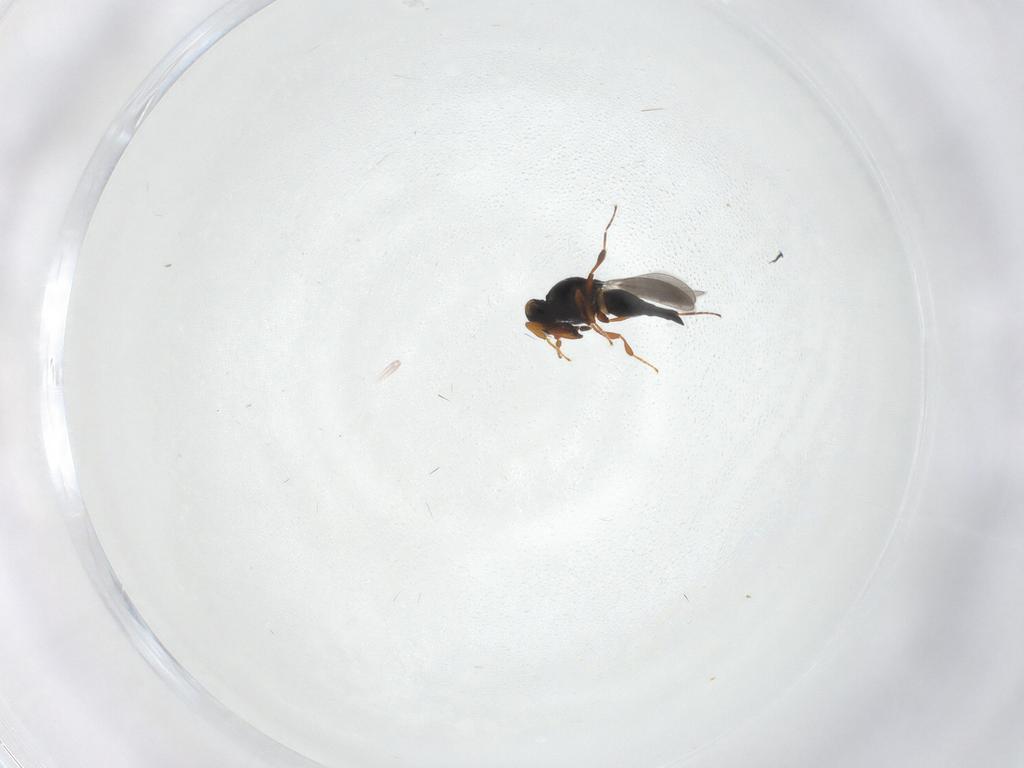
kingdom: Animalia
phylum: Arthropoda
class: Insecta
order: Hymenoptera
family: Platygastridae
